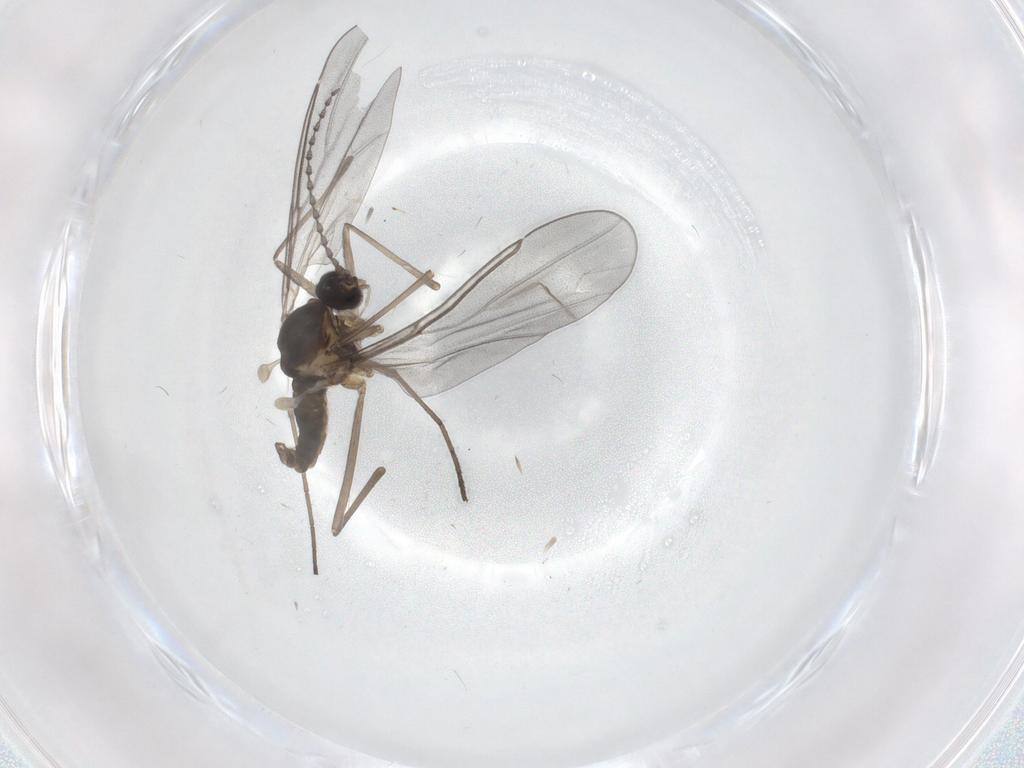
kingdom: Animalia
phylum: Arthropoda
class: Insecta
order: Diptera
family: Cecidomyiidae
